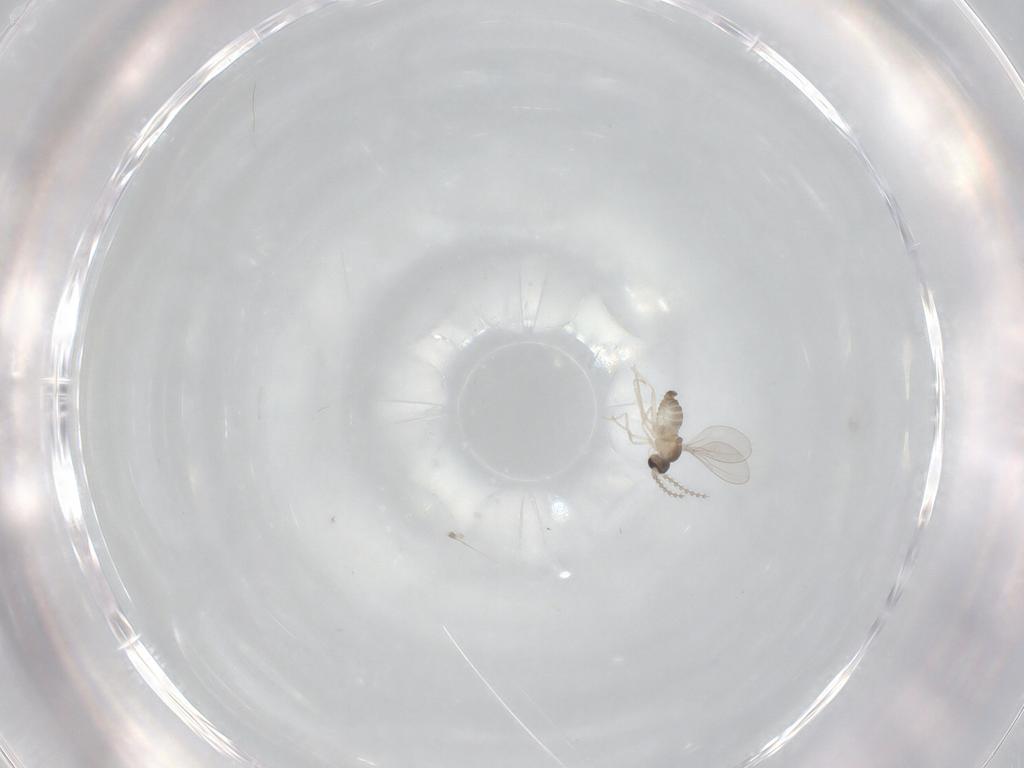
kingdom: Animalia
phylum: Arthropoda
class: Insecta
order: Diptera
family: Cecidomyiidae
